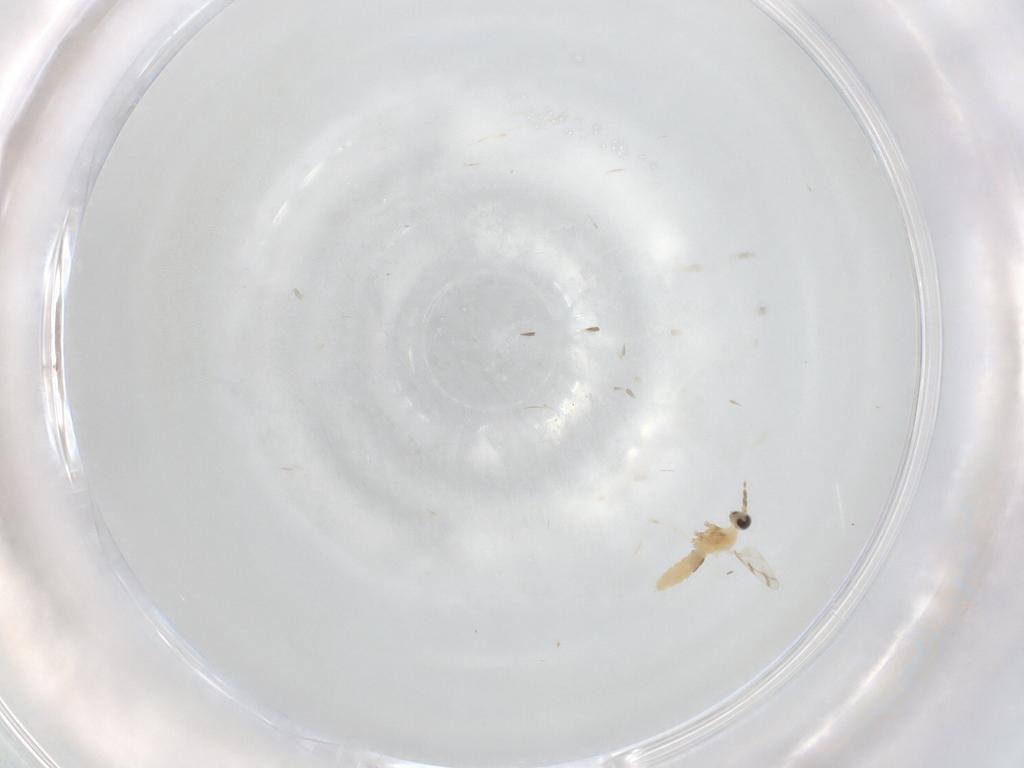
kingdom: Animalia
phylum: Arthropoda
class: Insecta
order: Diptera
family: Cecidomyiidae
